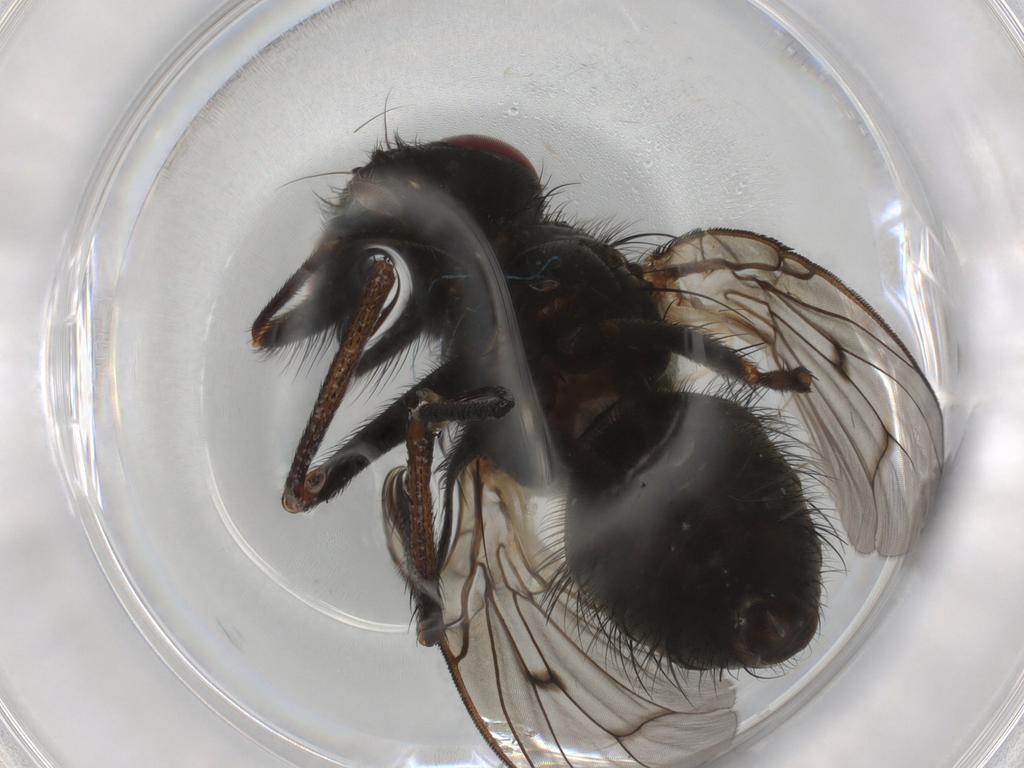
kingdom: Animalia
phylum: Arthropoda
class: Insecta
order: Diptera
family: Muscidae
